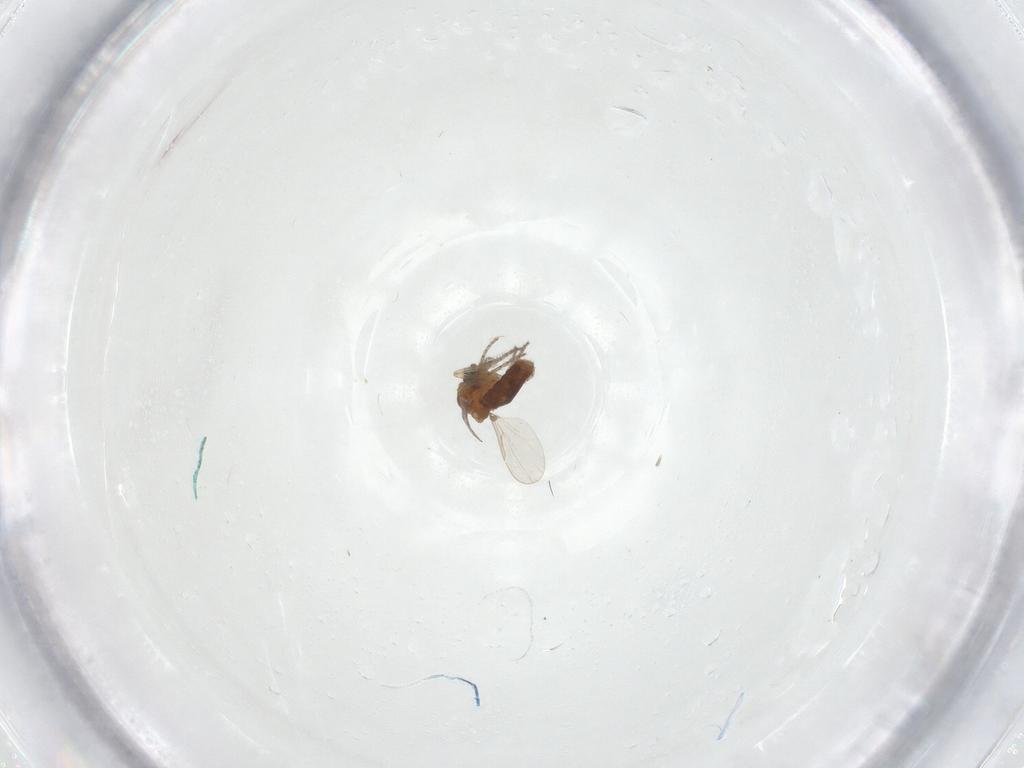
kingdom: Animalia
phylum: Arthropoda
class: Insecta
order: Diptera
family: Ceratopogonidae
